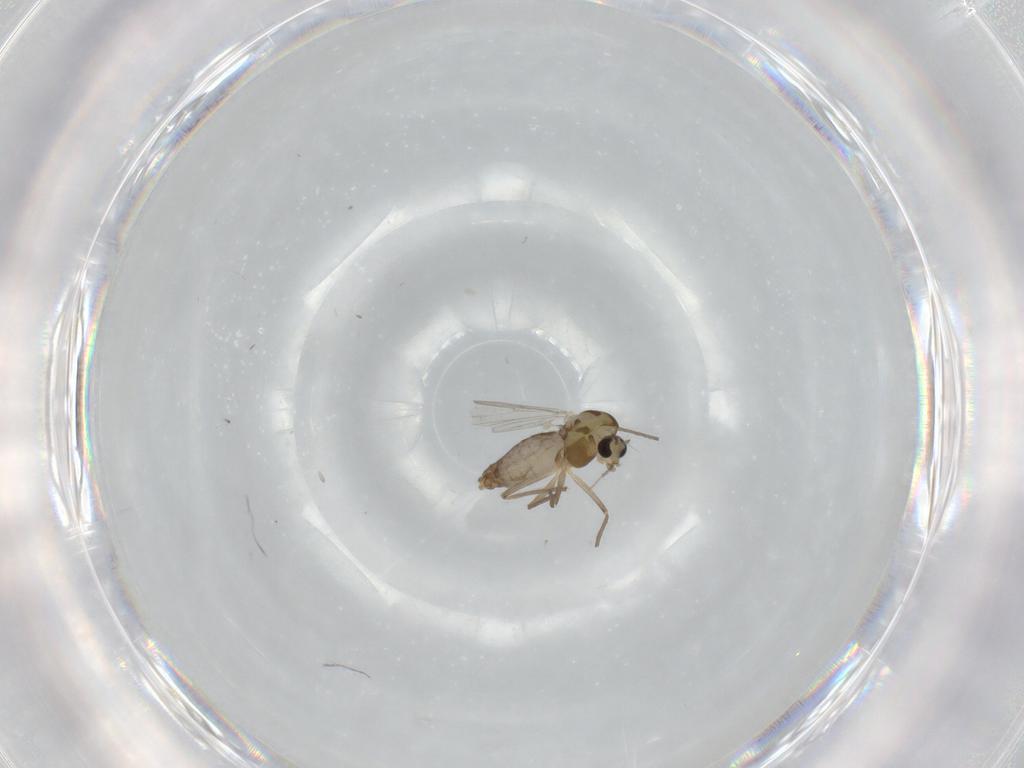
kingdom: Animalia
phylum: Arthropoda
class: Insecta
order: Diptera
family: Chironomidae
